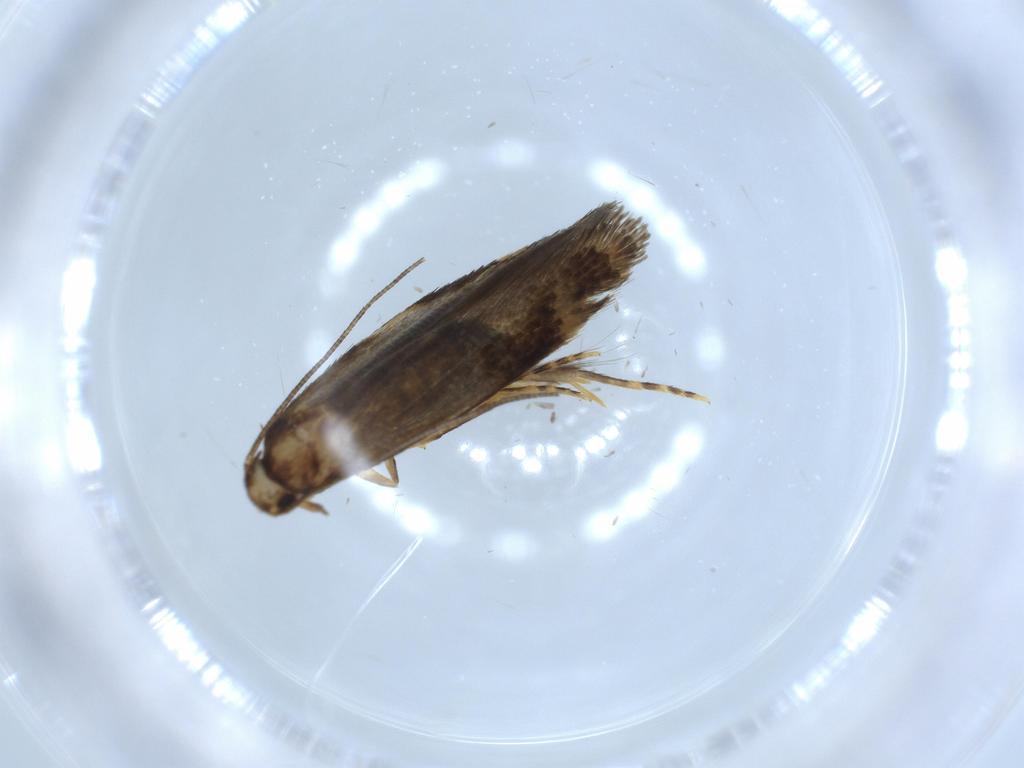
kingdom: Animalia
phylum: Arthropoda
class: Insecta
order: Lepidoptera
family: Tineidae
